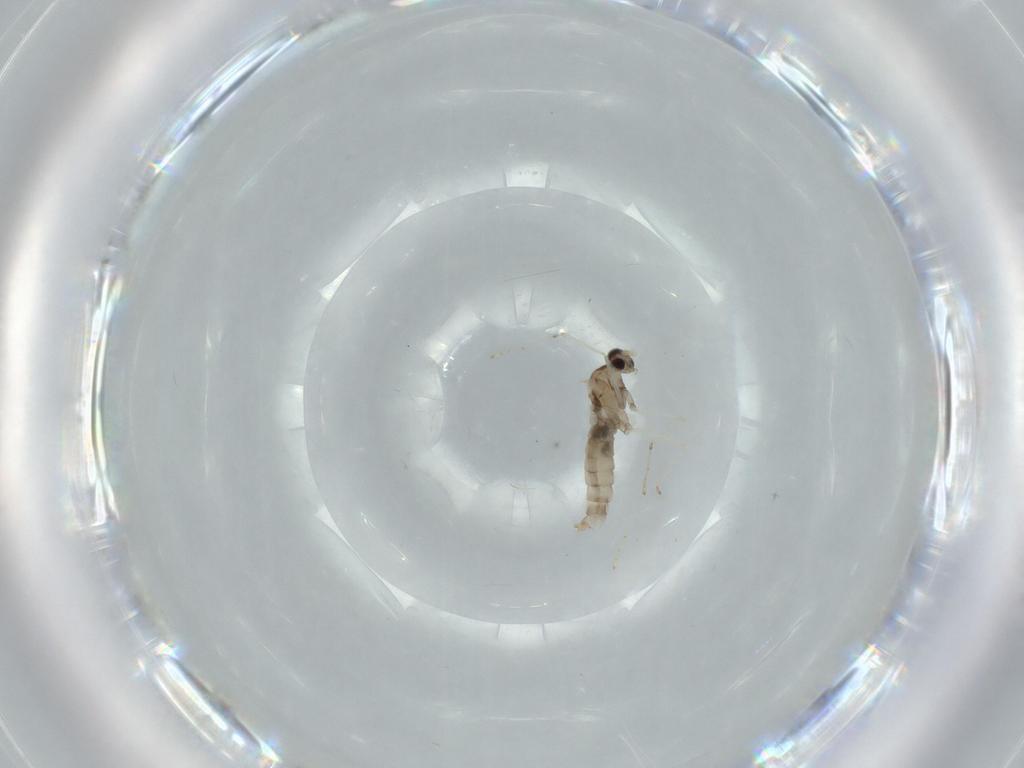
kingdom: Animalia
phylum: Arthropoda
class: Insecta
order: Diptera
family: Cecidomyiidae
